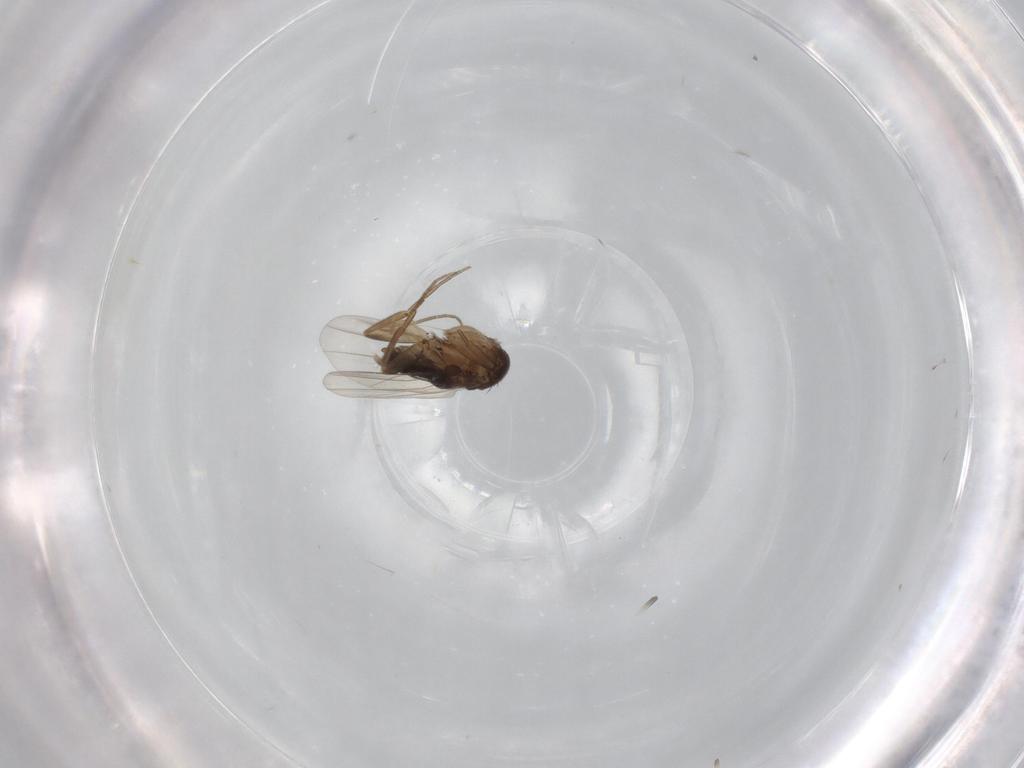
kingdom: Animalia
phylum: Arthropoda
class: Insecta
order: Diptera
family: Phoridae
